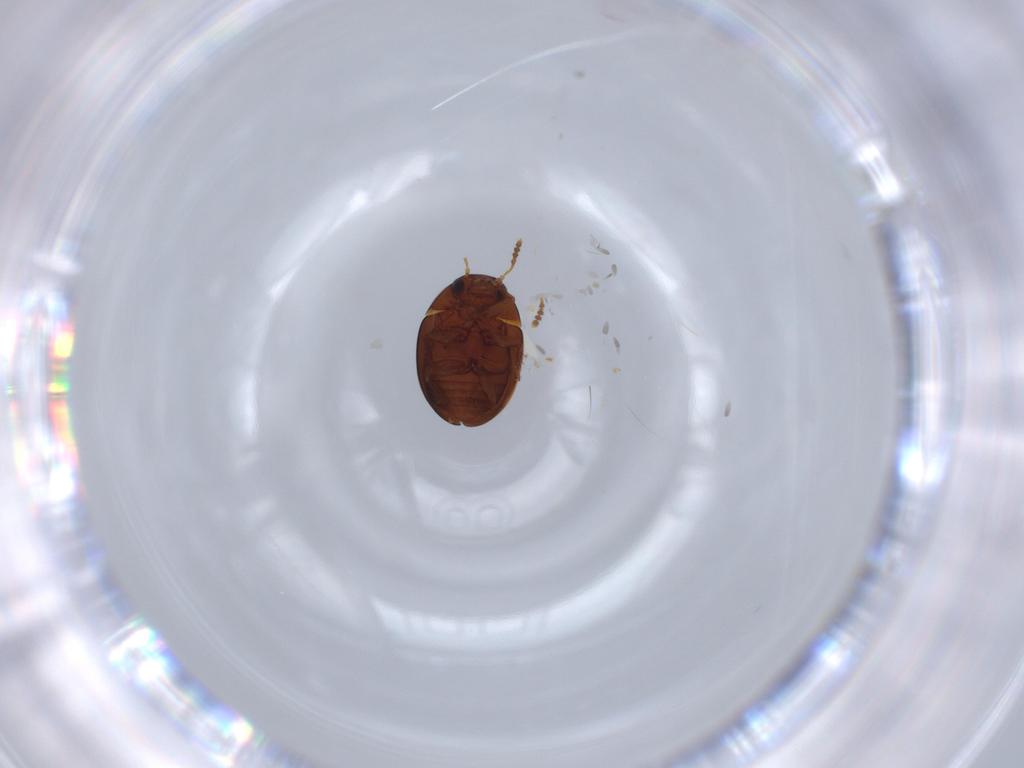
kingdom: Animalia
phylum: Arthropoda
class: Insecta
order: Coleoptera
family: Leiodidae
